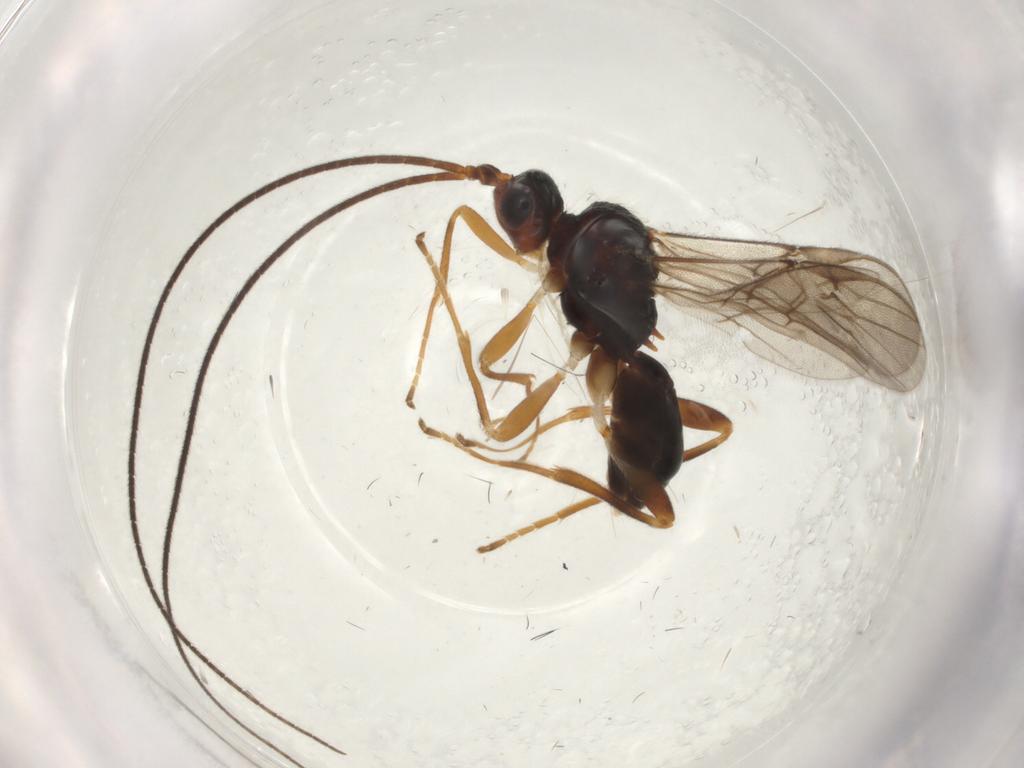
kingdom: Animalia
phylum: Arthropoda
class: Insecta
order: Hymenoptera
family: Braconidae
